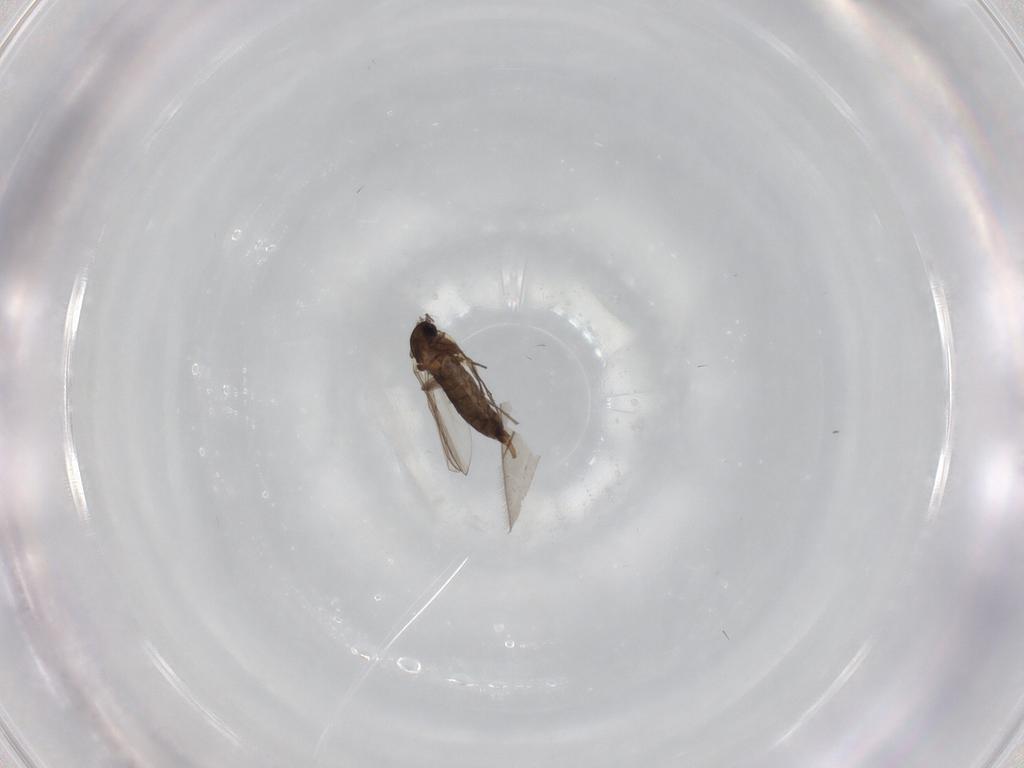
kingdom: Animalia
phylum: Arthropoda
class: Insecta
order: Diptera
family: Chironomidae
